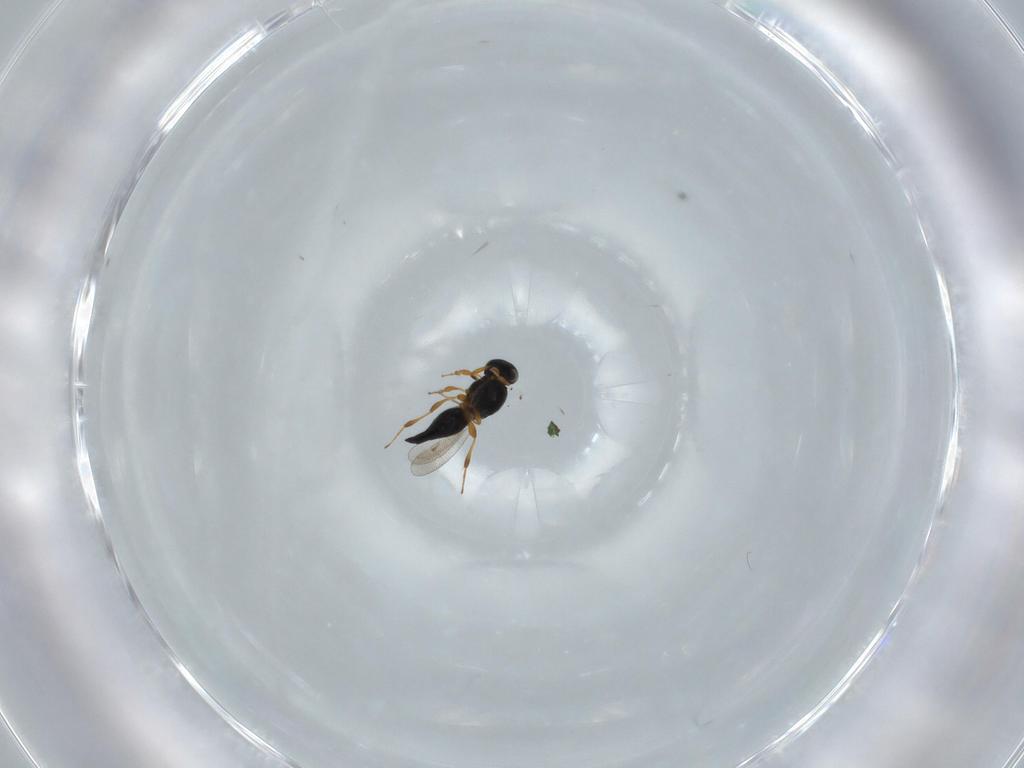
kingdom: Animalia
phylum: Arthropoda
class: Insecta
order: Hymenoptera
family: Platygastridae
